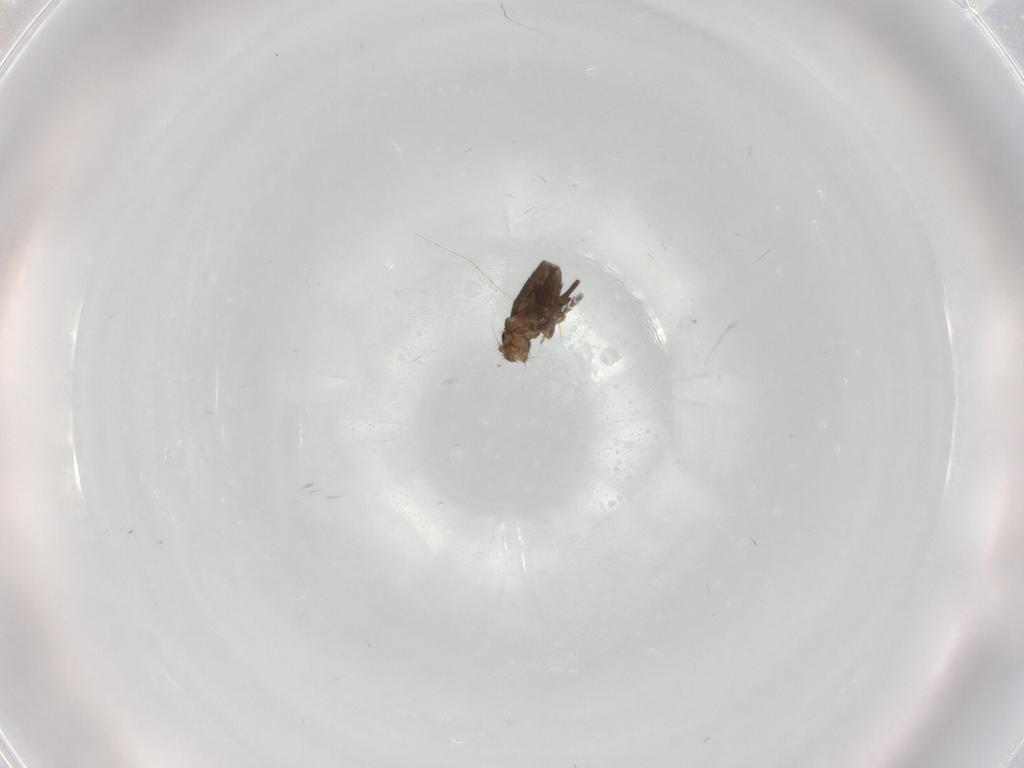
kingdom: Animalia
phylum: Arthropoda
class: Insecta
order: Diptera
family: Phoridae
